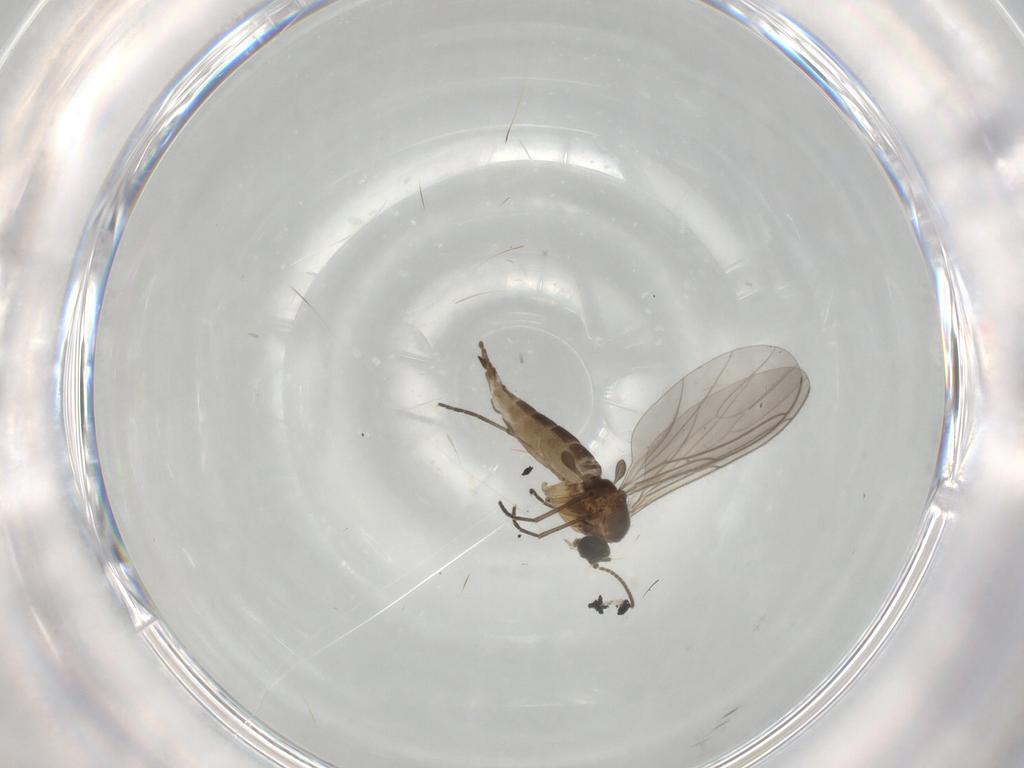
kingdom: Animalia
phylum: Arthropoda
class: Insecta
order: Diptera
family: Sciaridae
